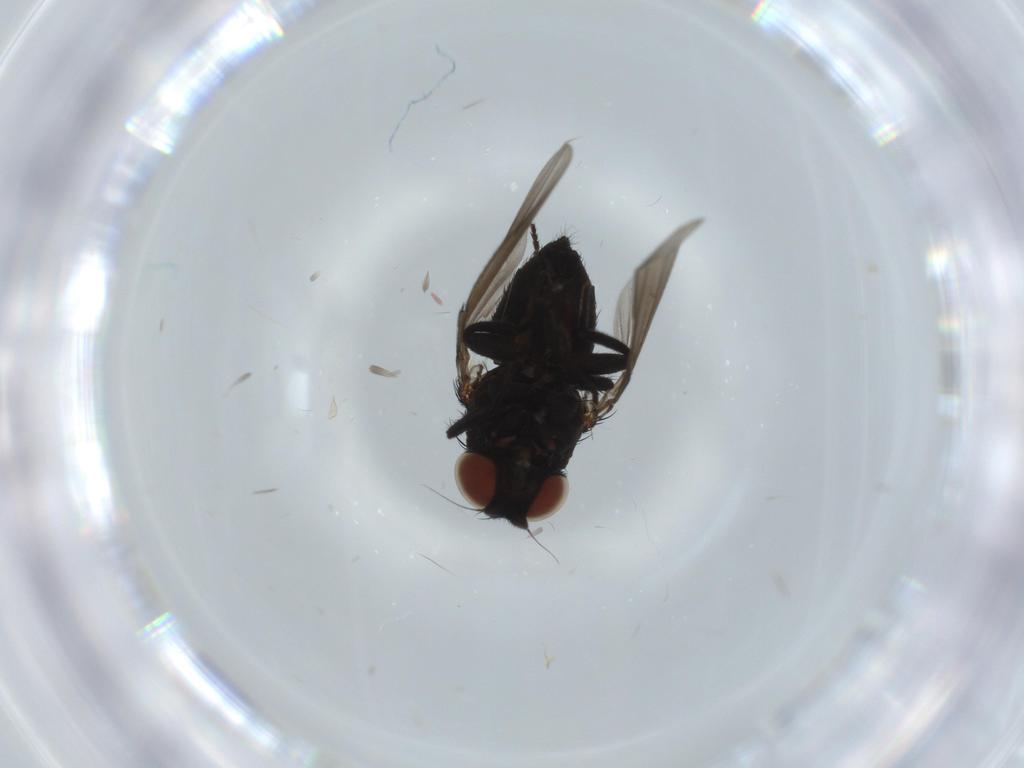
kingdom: Animalia
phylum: Arthropoda
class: Insecta
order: Diptera
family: Milichiidae
